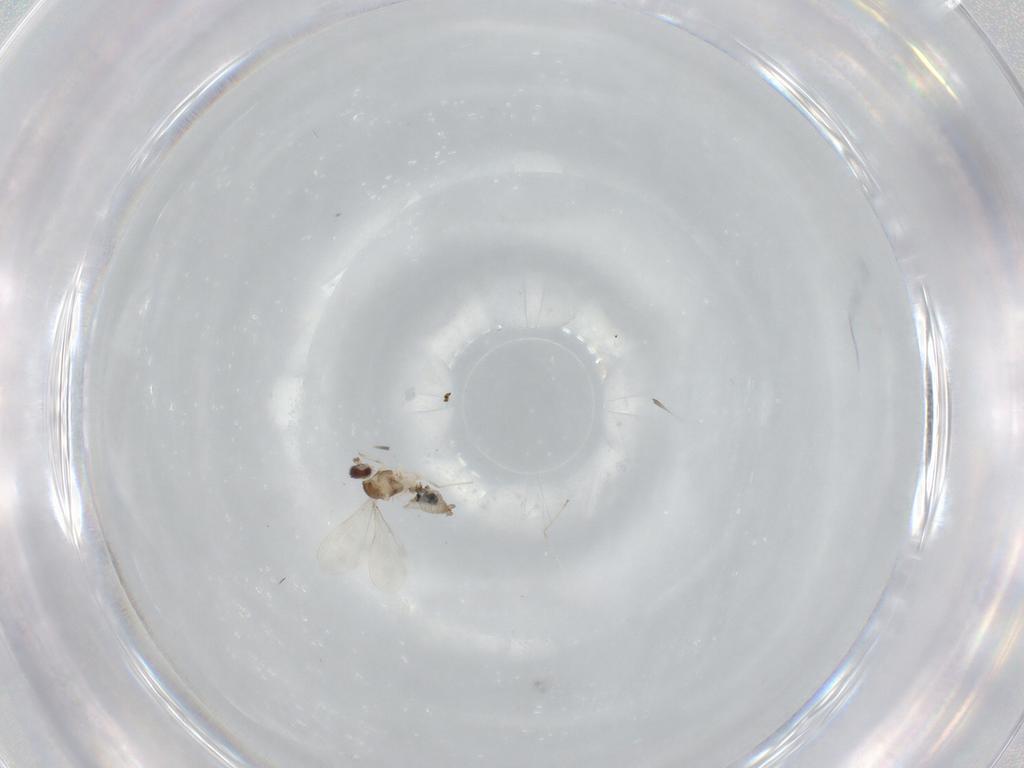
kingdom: Animalia
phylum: Arthropoda
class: Insecta
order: Diptera
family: Cecidomyiidae
